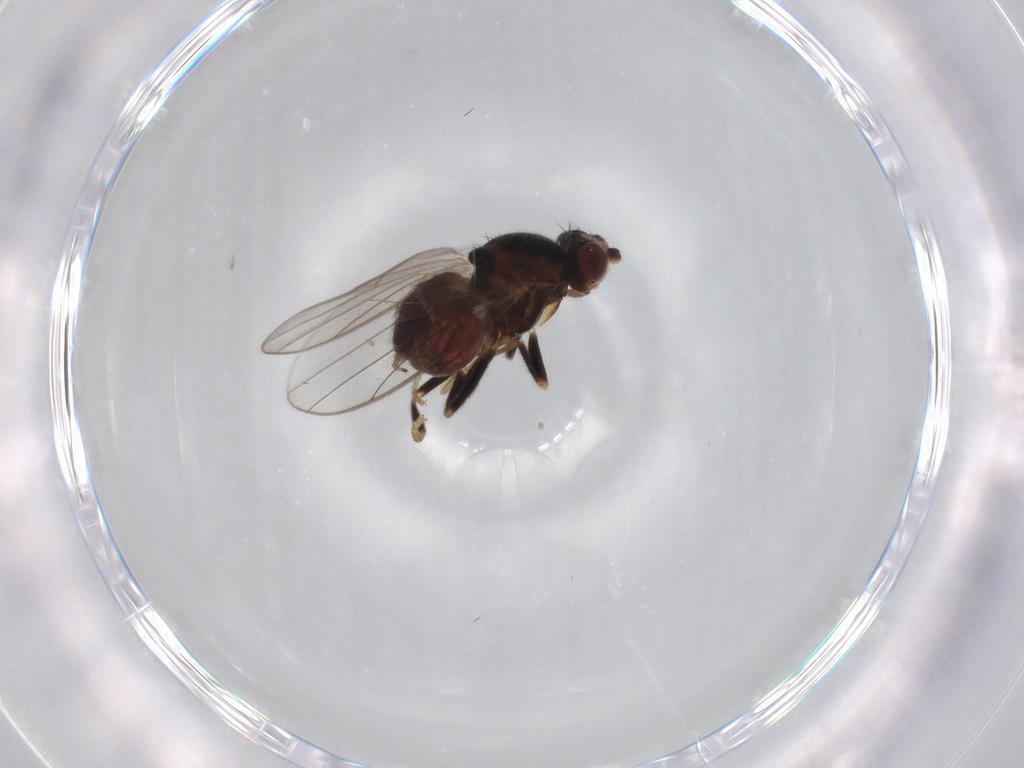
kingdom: Animalia
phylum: Arthropoda
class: Insecta
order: Diptera
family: Chloropidae
